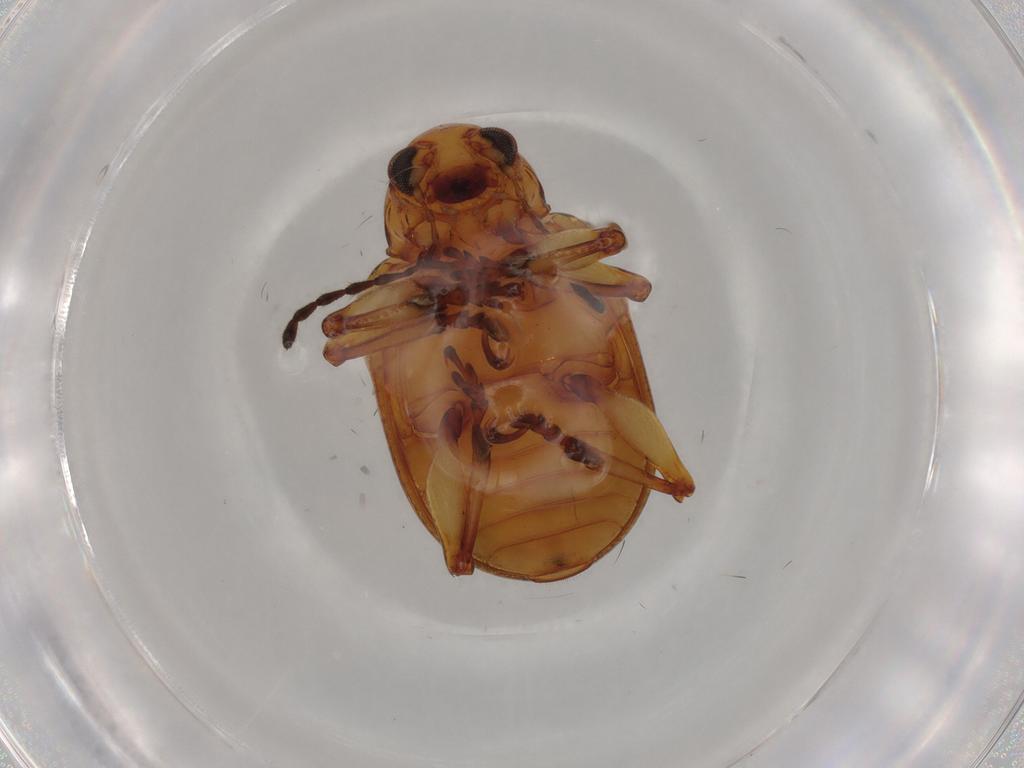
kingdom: Animalia
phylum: Arthropoda
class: Insecta
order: Coleoptera
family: Chrysomelidae
